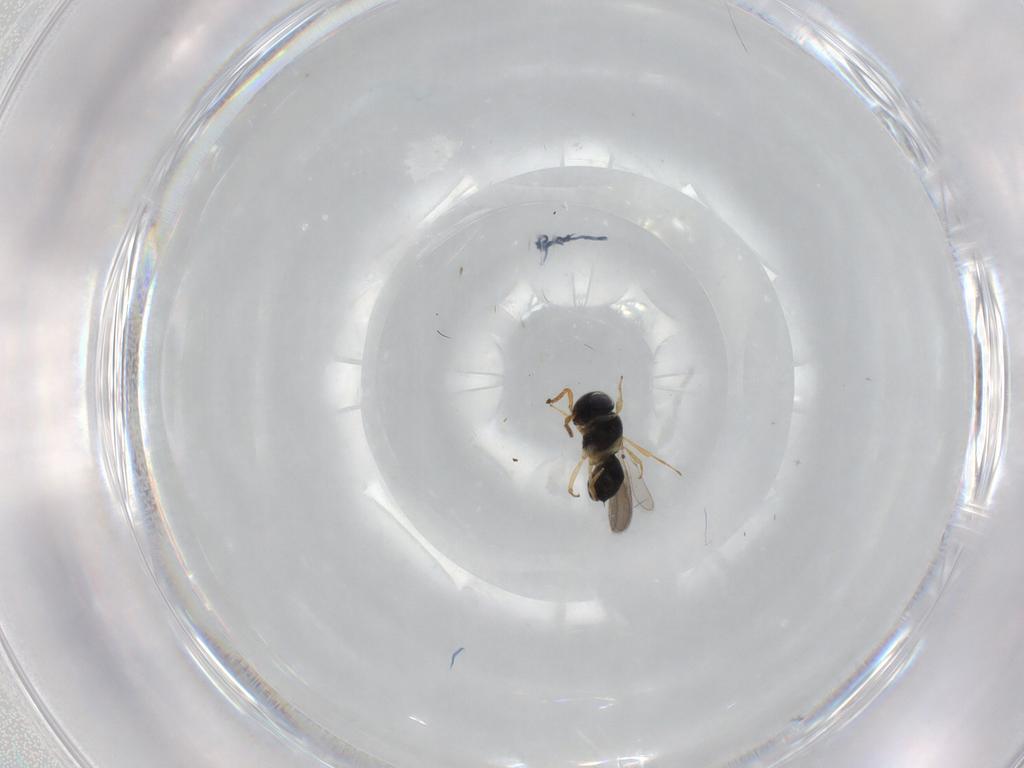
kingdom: Animalia
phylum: Arthropoda
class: Insecta
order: Hymenoptera
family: Scelionidae
